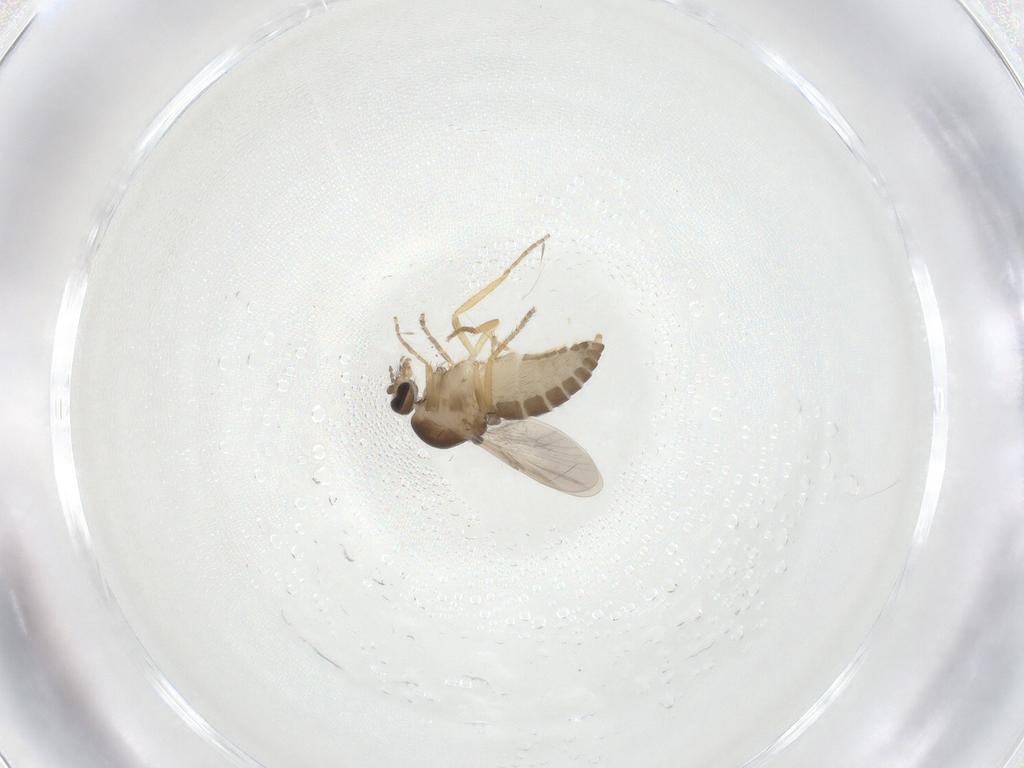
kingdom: Animalia
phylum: Arthropoda
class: Insecta
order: Diptera
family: Ceratopogonidae
